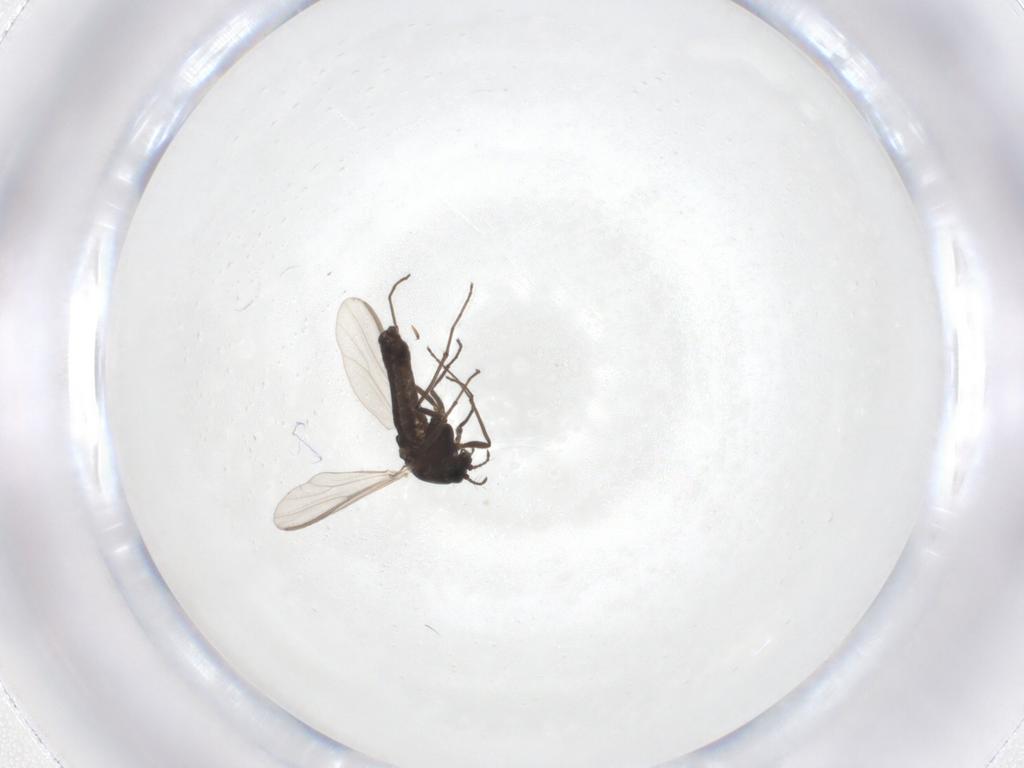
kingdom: Animalia
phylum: Arthropoda
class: Insecta
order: Diptera
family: Chironomidae
